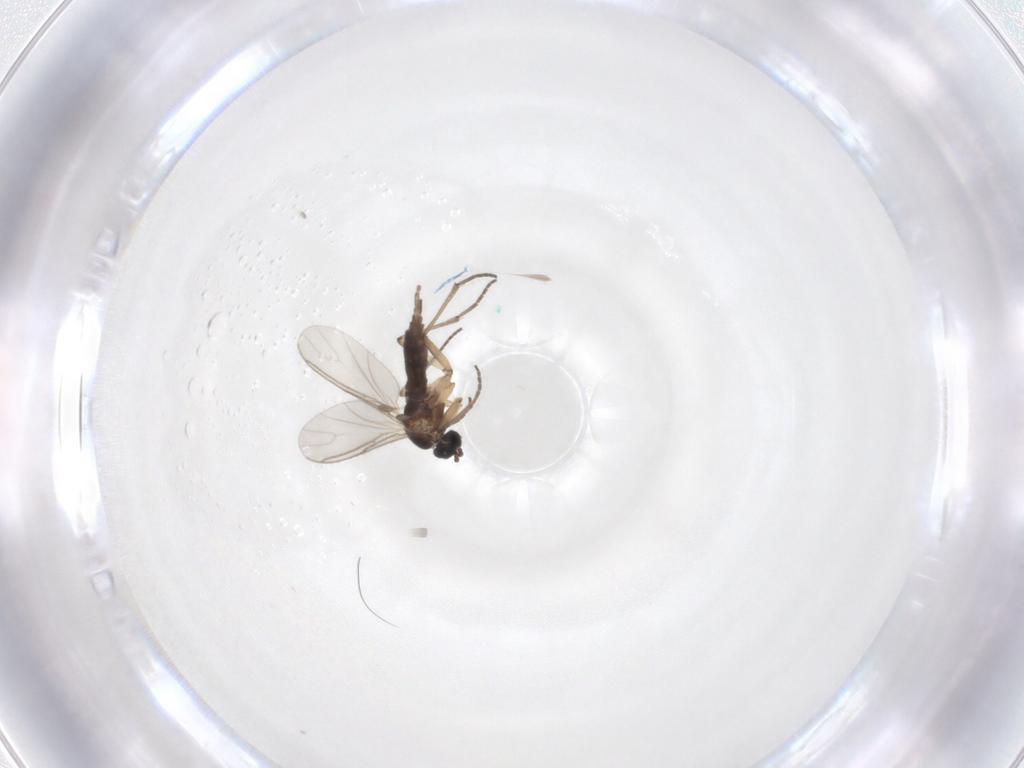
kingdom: Animalia
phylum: Arthropoda
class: Insecta
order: Diptera
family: Sciaridae
